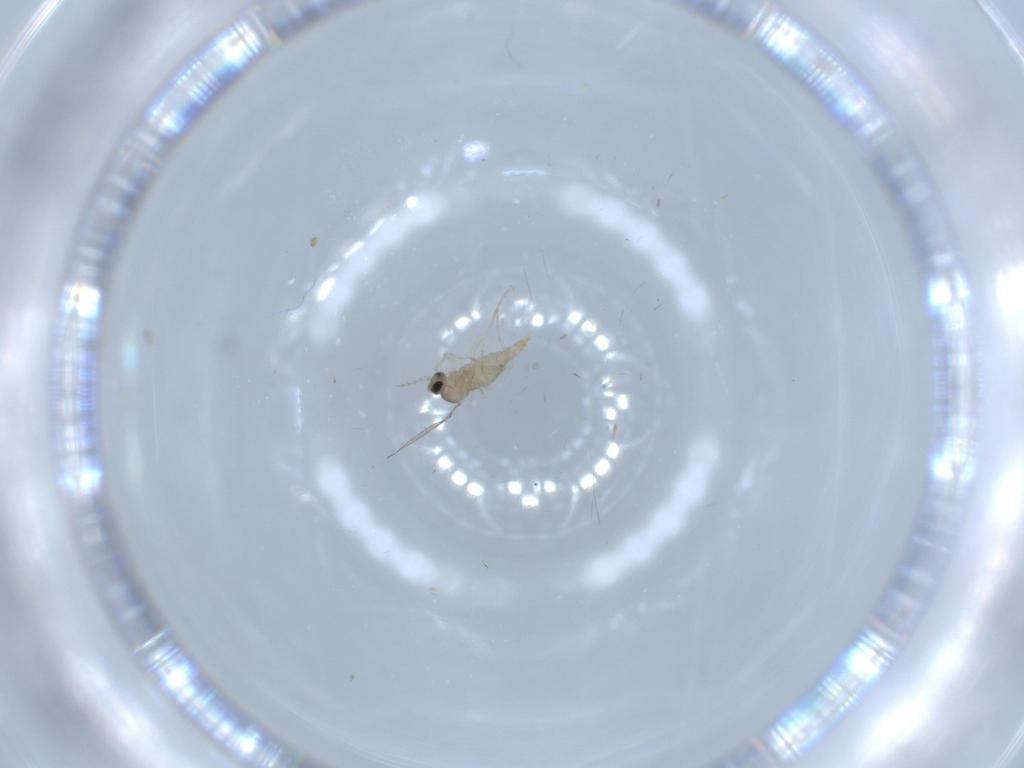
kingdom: Animalia
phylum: Arthropoda
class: Insecta
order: Diptera
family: Cecidomyiidae
